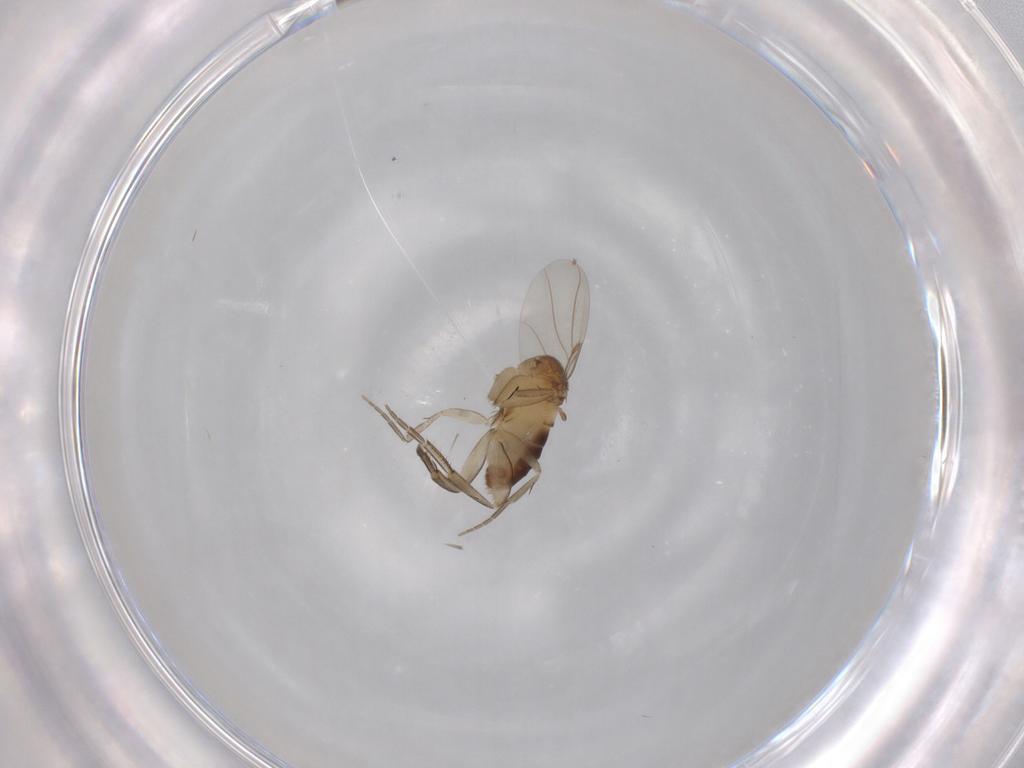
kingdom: Animalia
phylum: Arthropoda
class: Insecta
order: Diptera
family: Phoridae
